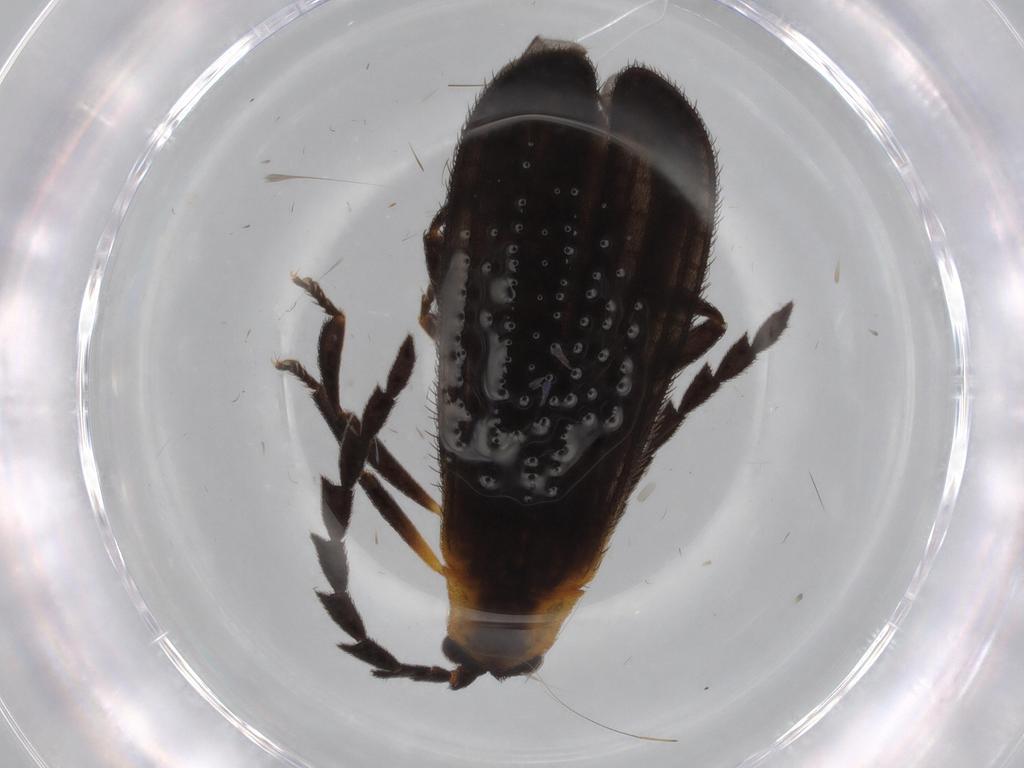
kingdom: Animalia
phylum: Arthropoda
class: Insecta
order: Coleoptera
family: Lycidae
